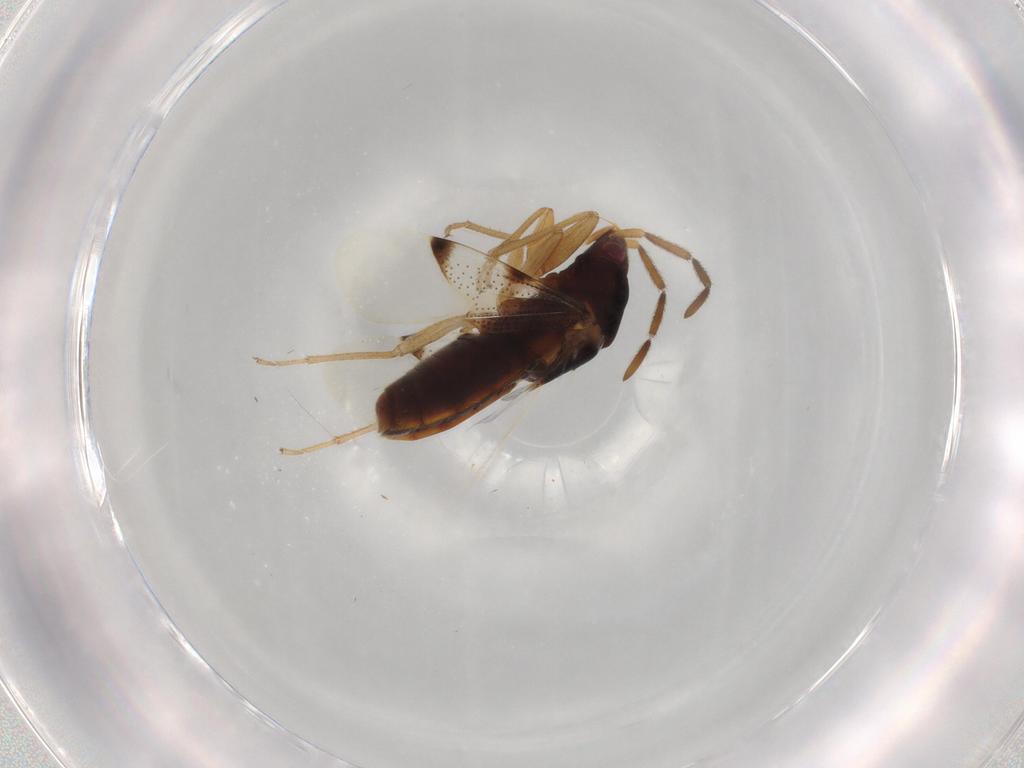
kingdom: Animalia
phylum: Arthropoda
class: Insecta
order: Hemiptera
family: Rhyparochromidae
